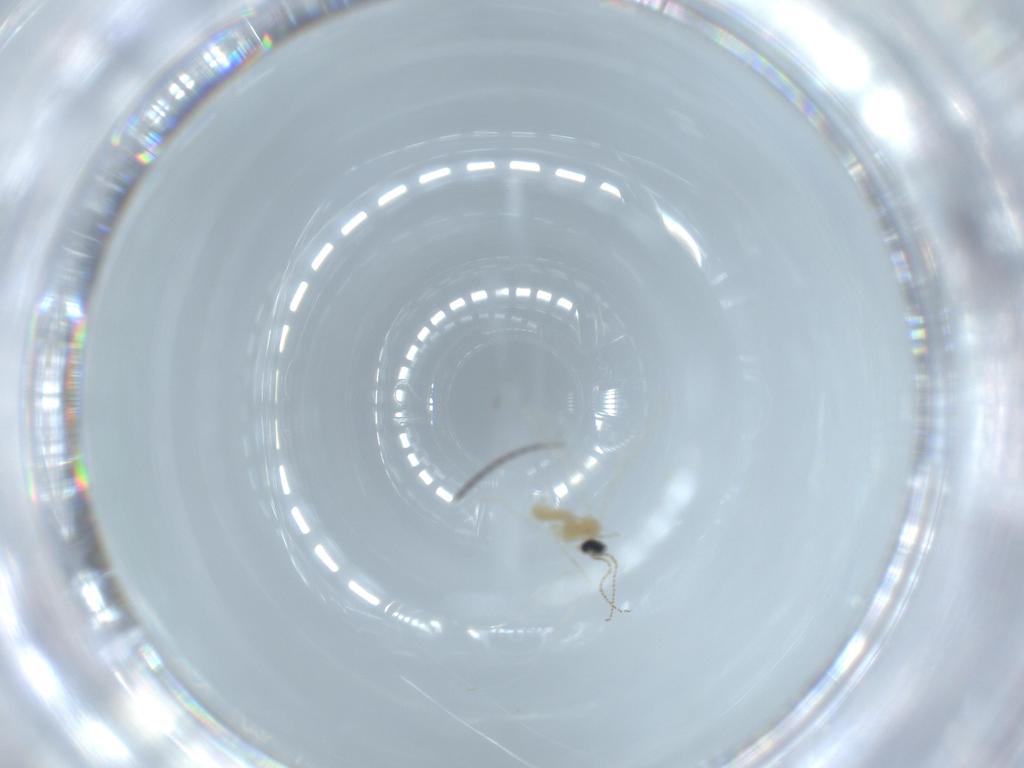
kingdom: Animalia
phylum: Arthropoda
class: Insecta
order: Diptera
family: Cecidomyiidae
